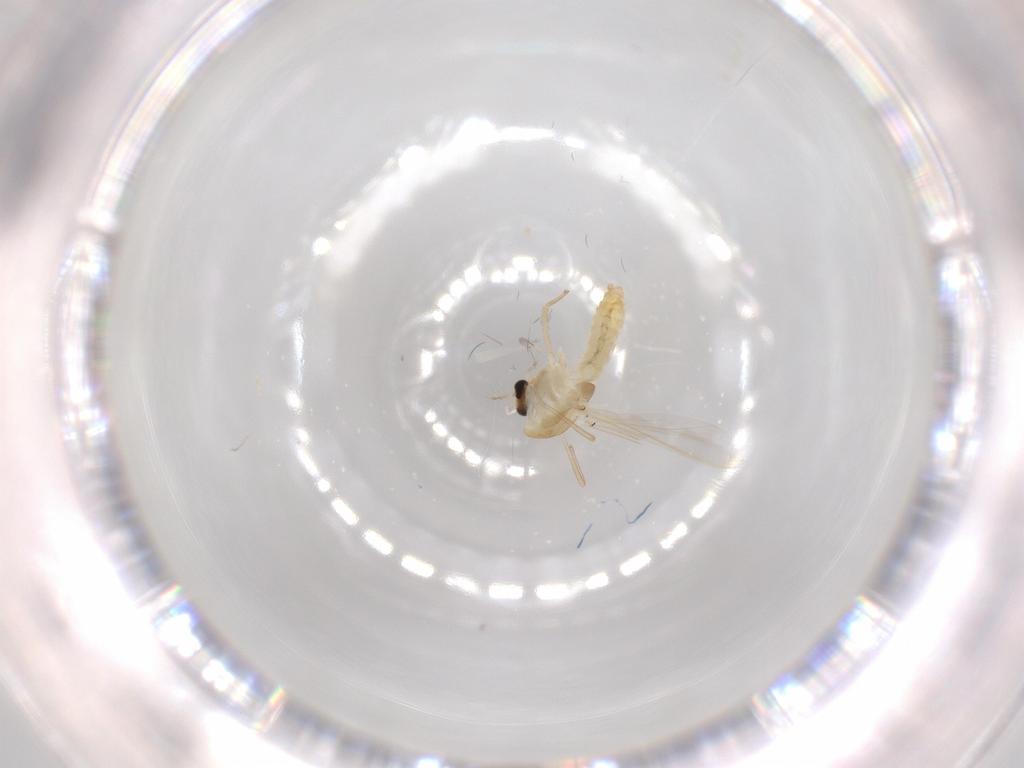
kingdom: Animalia
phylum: Arthropoda
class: Insecta
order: Diptera
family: Chironomidae
